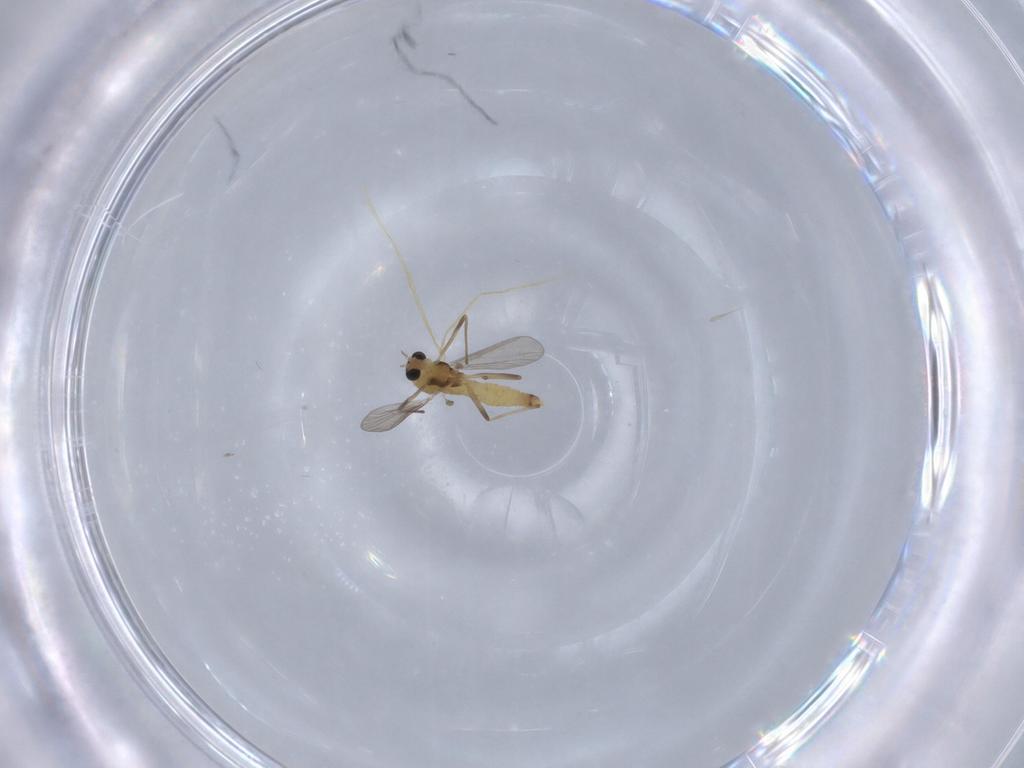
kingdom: Animalia
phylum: Arthropoda
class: Insecta
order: Diptera
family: Chironomidae
